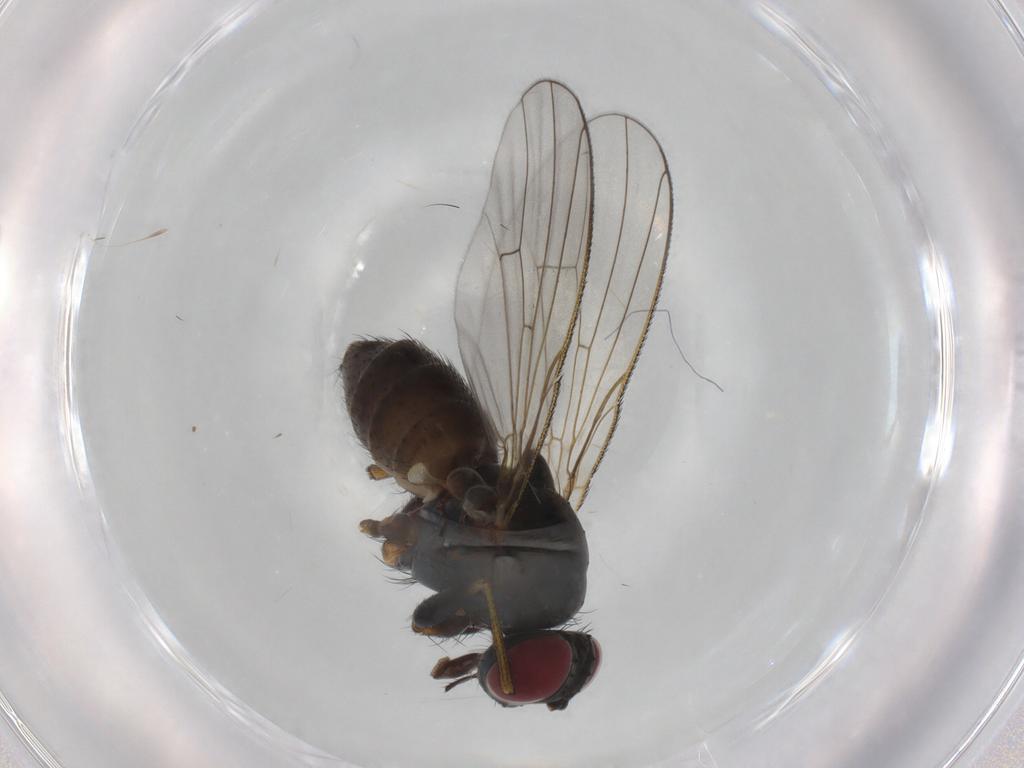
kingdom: Animalia
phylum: Arthropoda
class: Insecta
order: Diptera
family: Muscidae
